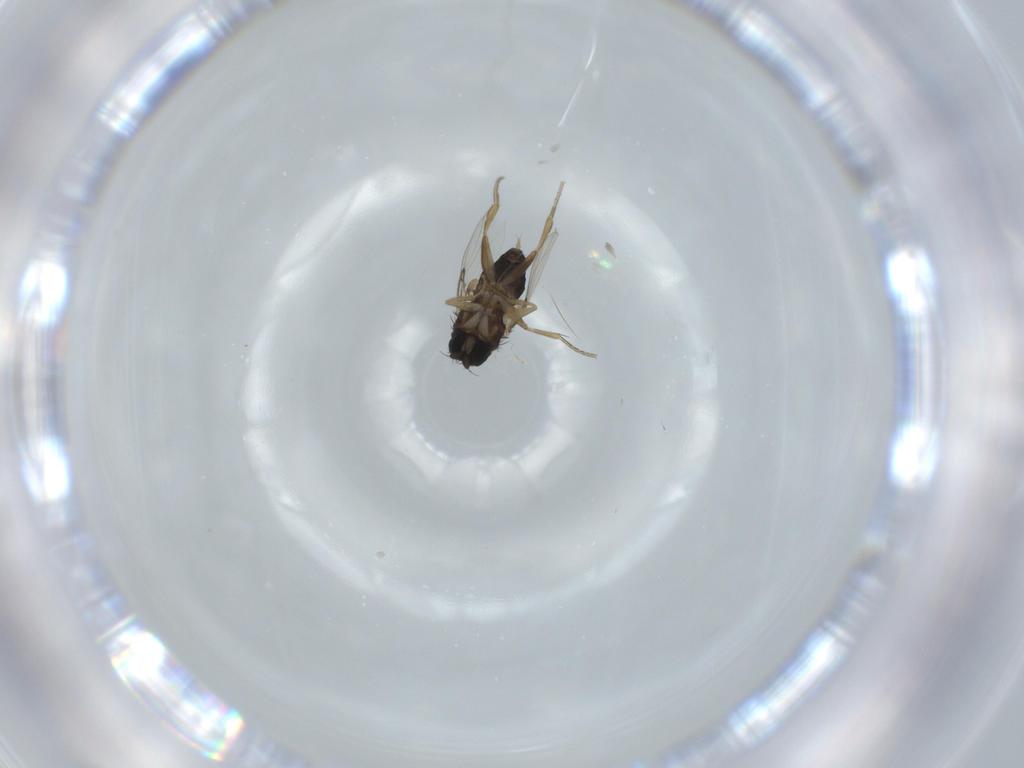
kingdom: Animalia
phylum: Arthropoda
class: Insecta
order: Diptera
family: Phoridae
